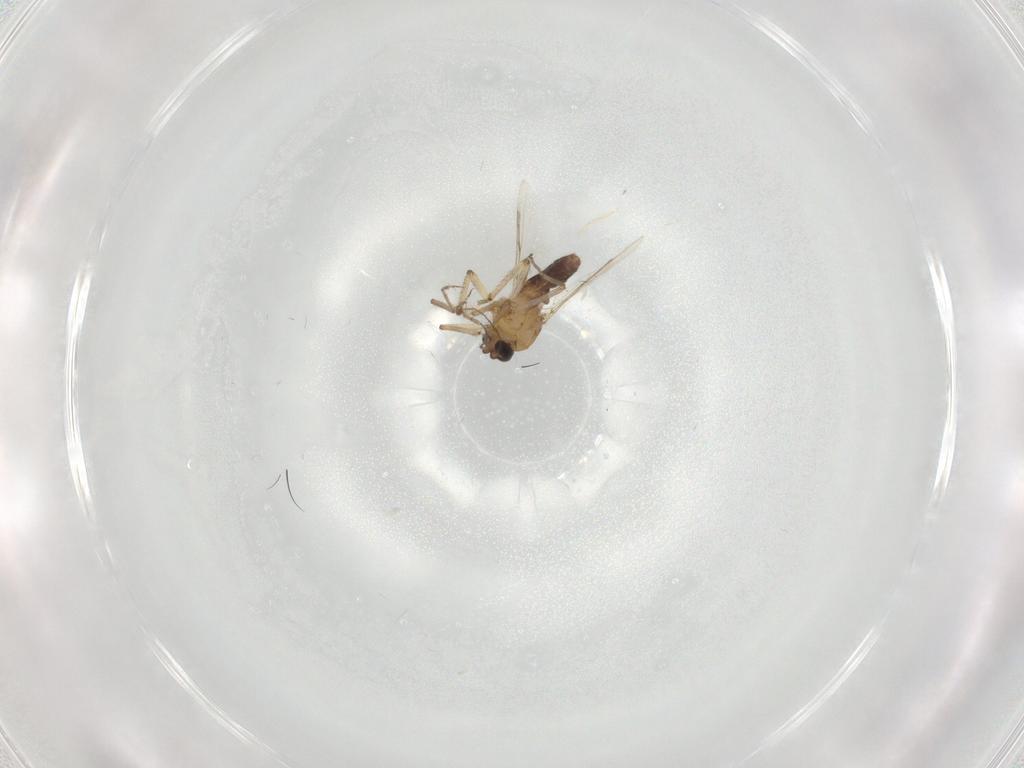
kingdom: Animalia
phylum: Arthropoda
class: Insecta
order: Diptera
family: Ceratopogonidae
